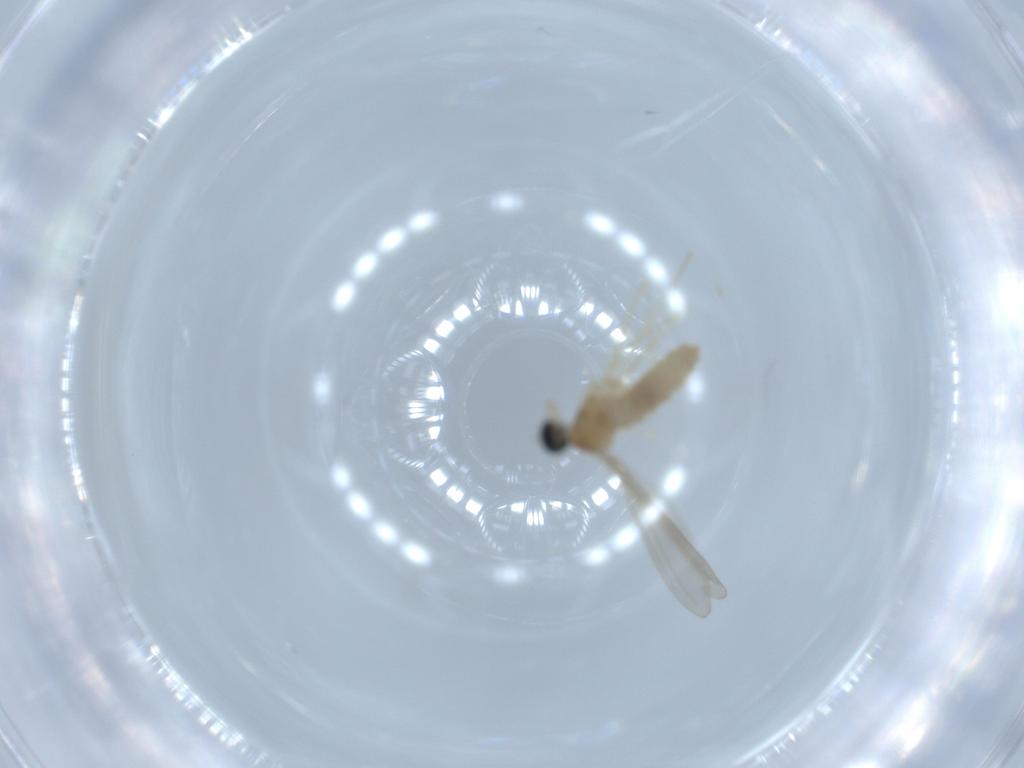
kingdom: Animalia
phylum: Arthropoda
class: Insecta
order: Diptera
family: Cecidomyiidae
